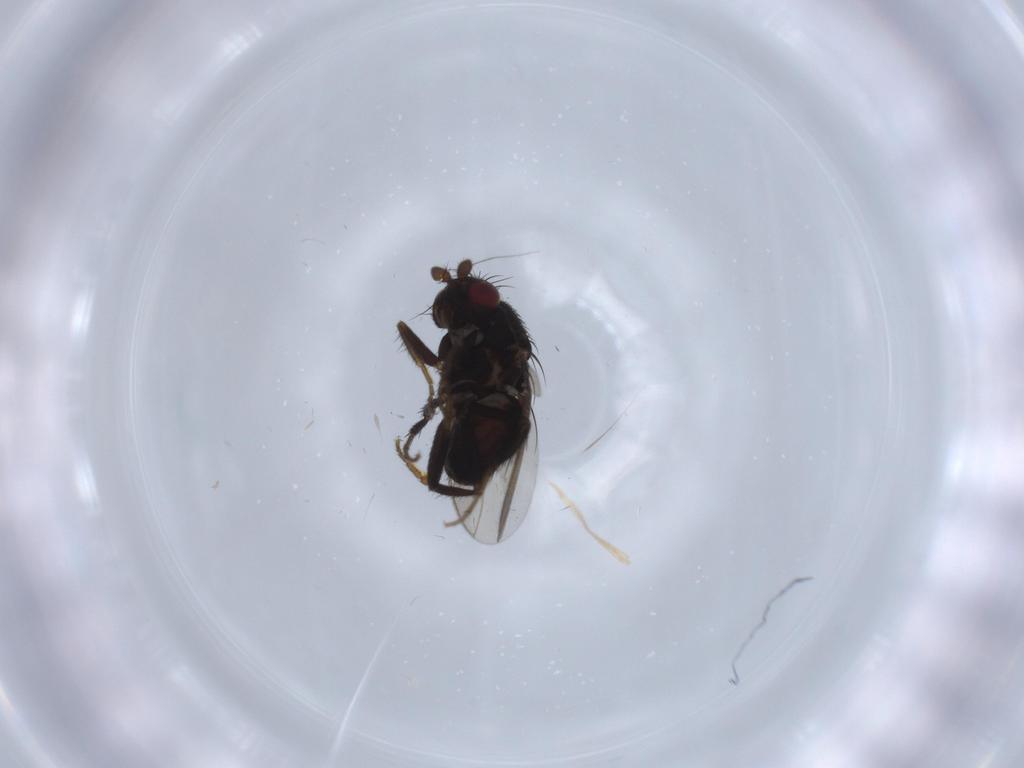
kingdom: Animalia
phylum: Arthropoda
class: Insecta
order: Diptera
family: Sphaeroceridae
